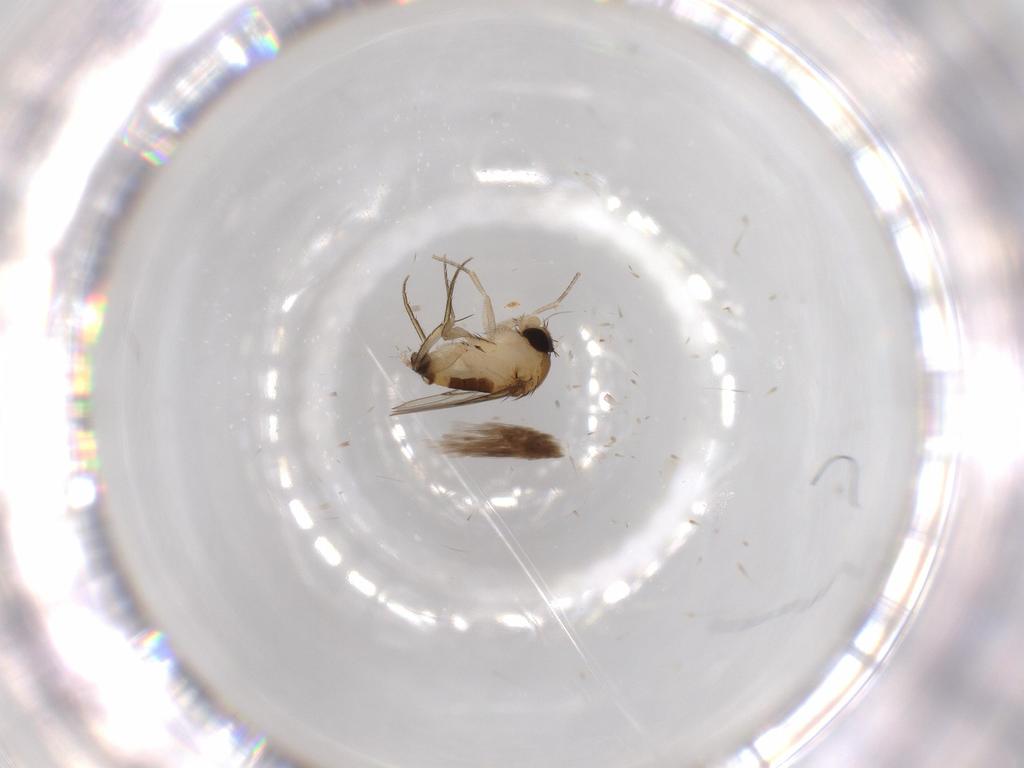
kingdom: Animalia
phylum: Arthropoda
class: Insecta
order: Diptera
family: Phoridae
